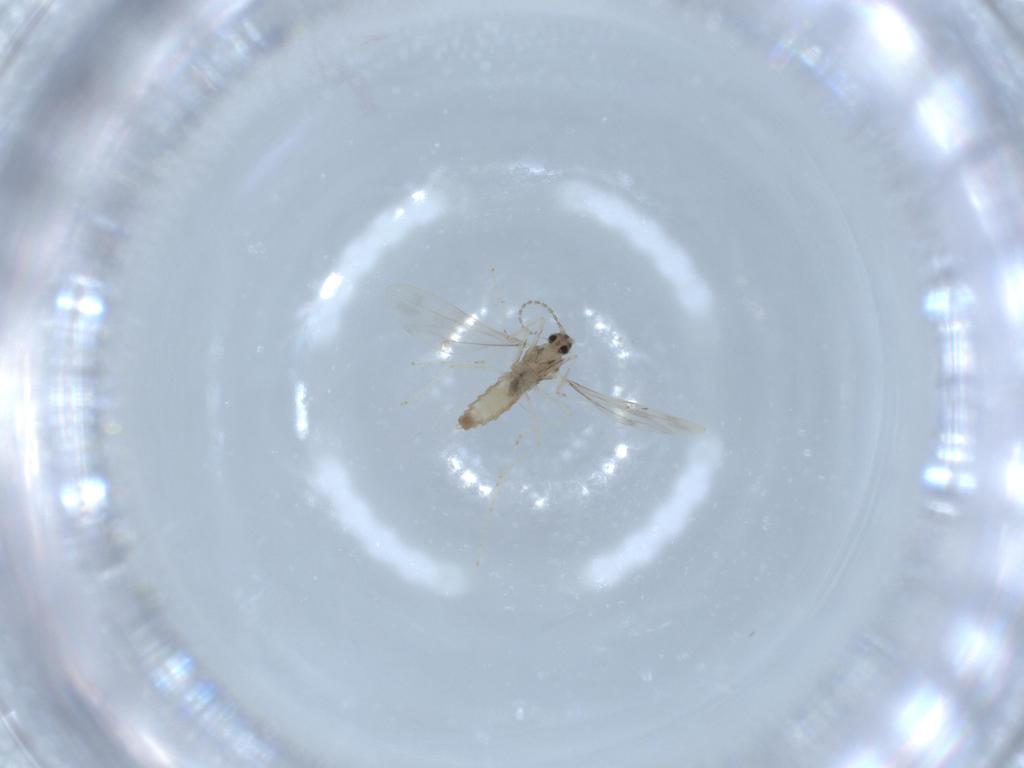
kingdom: Animalia
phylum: Arthropoda
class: Insecta
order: Diptera
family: Cecidomyiidae
